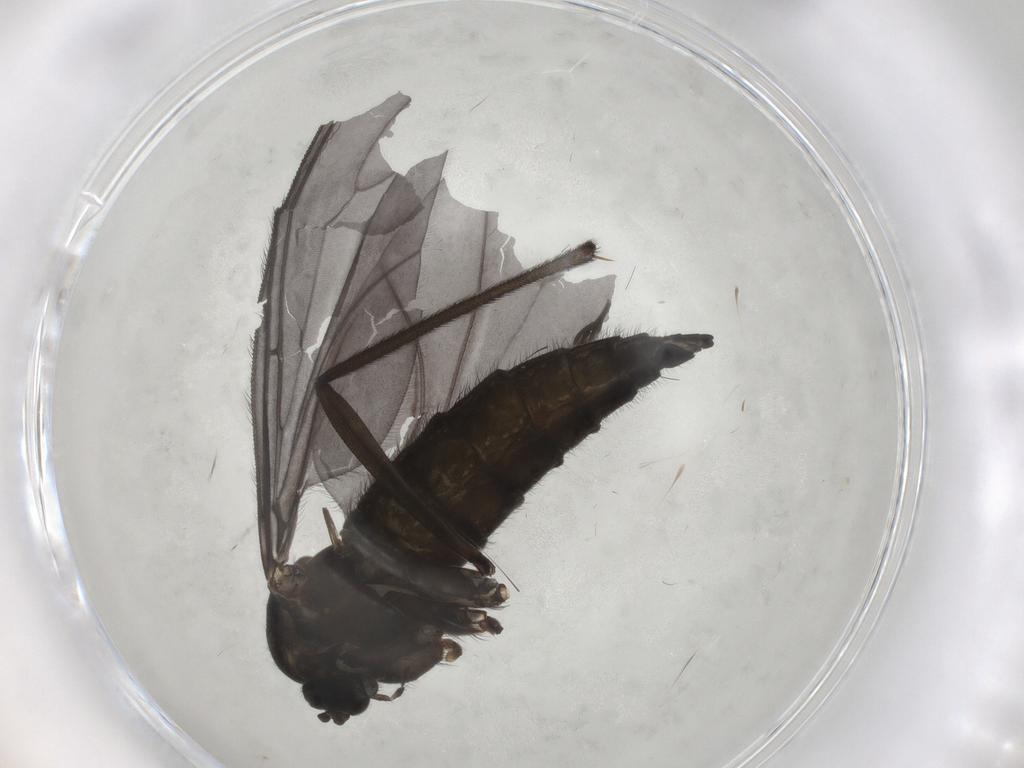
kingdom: Animalia
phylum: Arthropoda
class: Insecta
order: Diptera
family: Sciaridae
